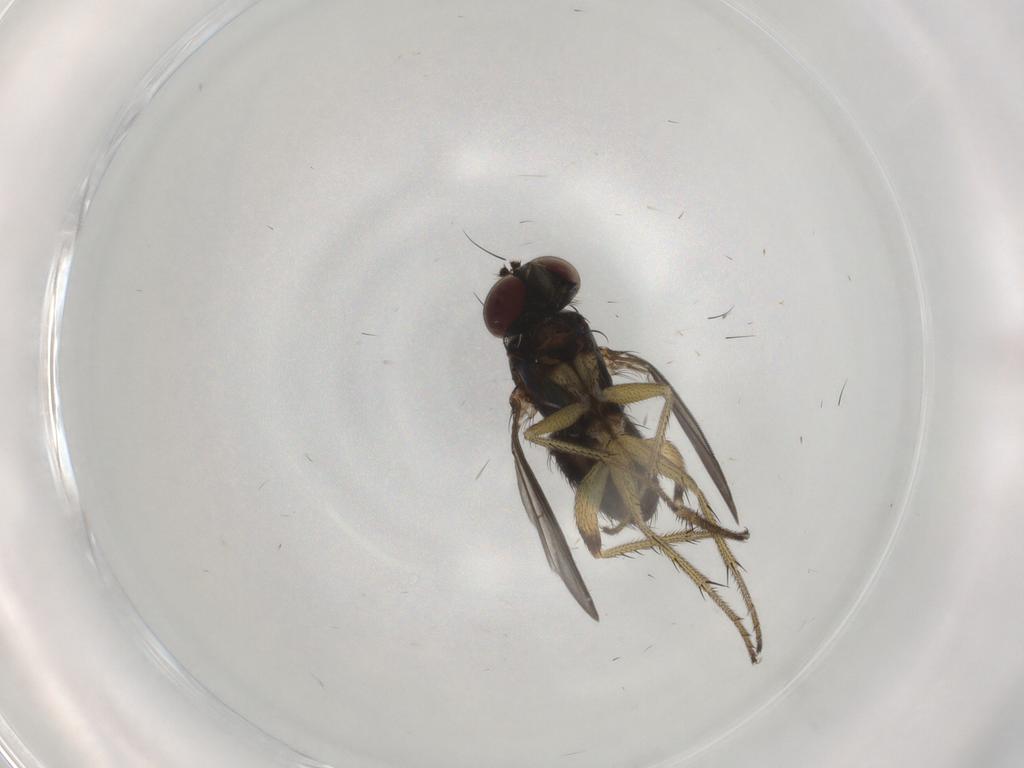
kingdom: Animalia
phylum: Arthropoda
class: Insecta
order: Diptera
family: Dolichopodidae
